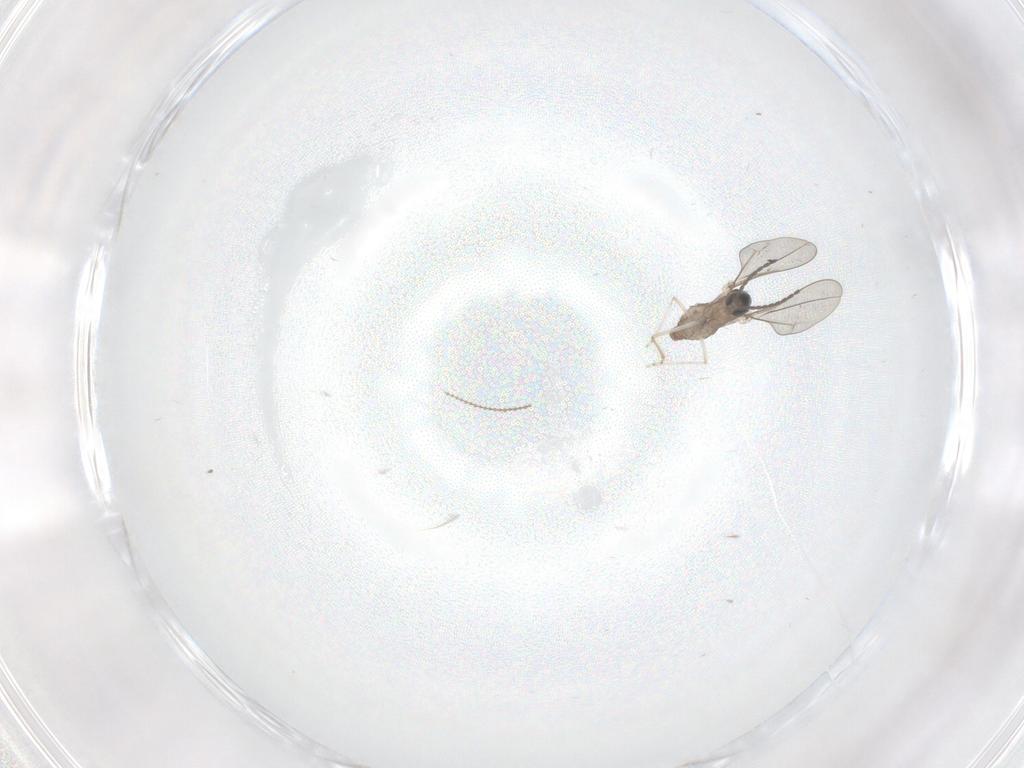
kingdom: Animalia
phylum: Arthropoda
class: Insecta
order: Diptera
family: Cecidomyiidae
